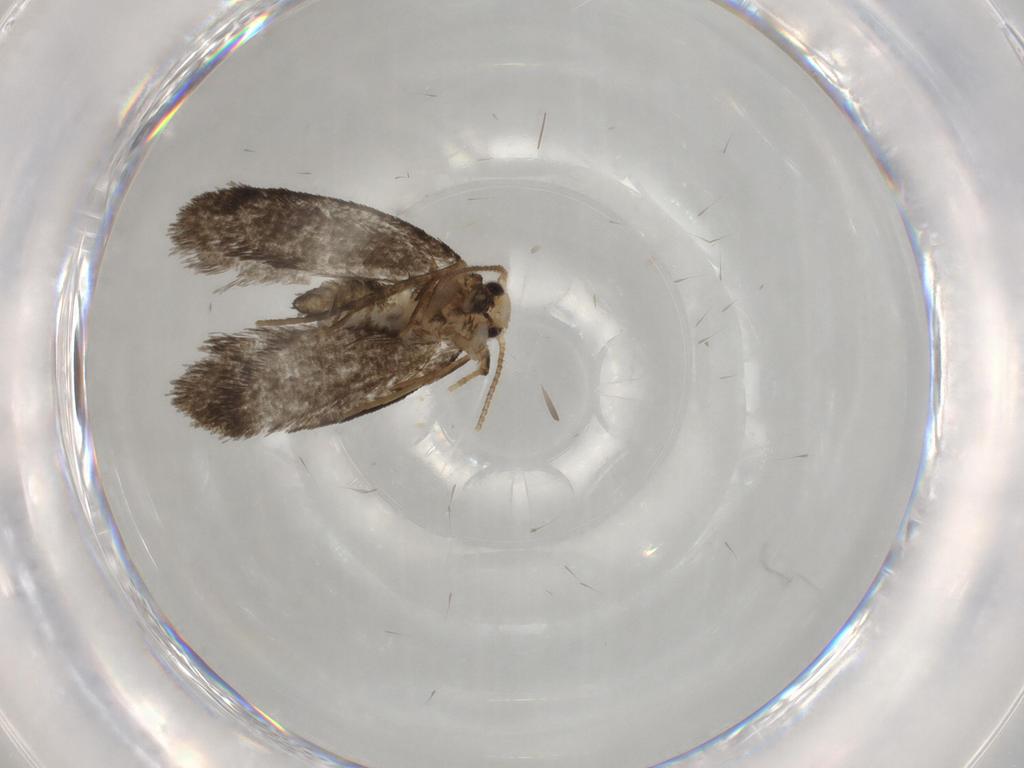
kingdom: Animalia
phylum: Arthropoda
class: Insecta
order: Lepidoptera
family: Psychidae
